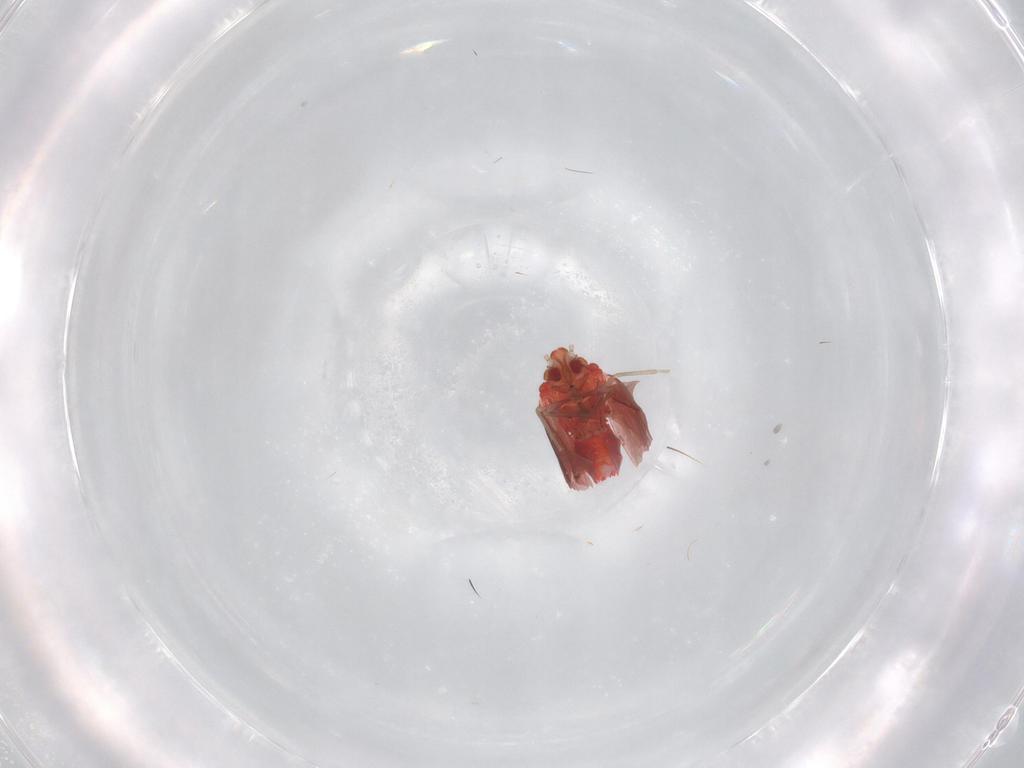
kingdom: Animalia
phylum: Arthropoda
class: Insecta
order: Hemiptera
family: Aleyrodidae
